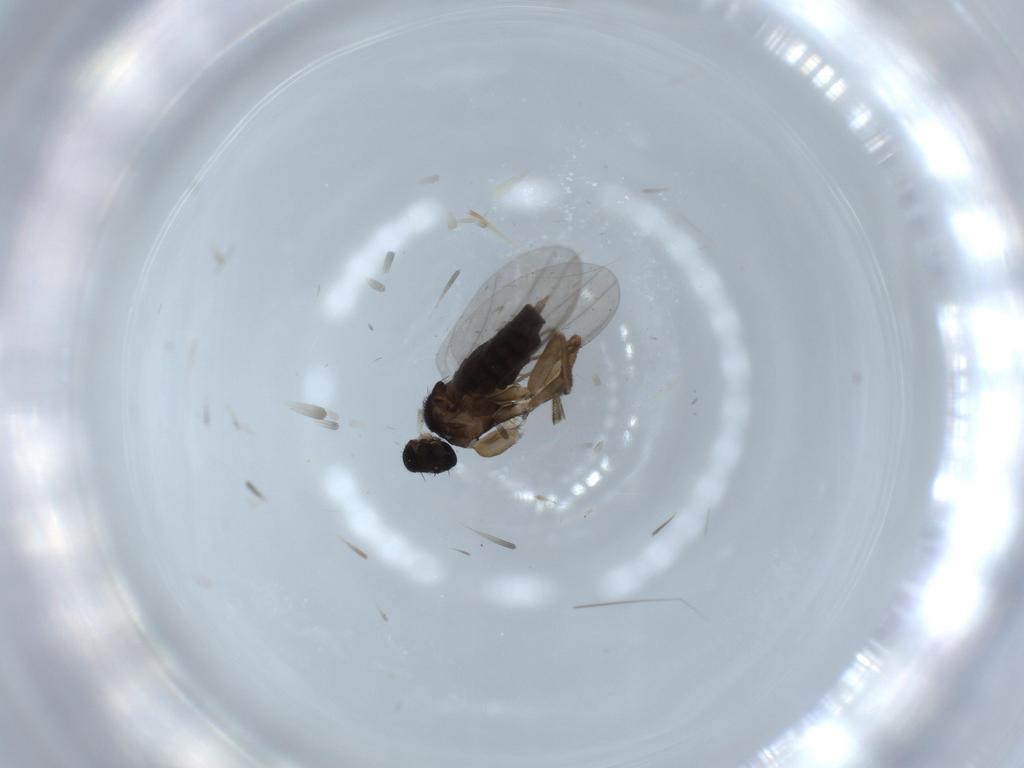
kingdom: Animalia
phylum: Arthropoda
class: Insecta
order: Diptera
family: Phoridae
